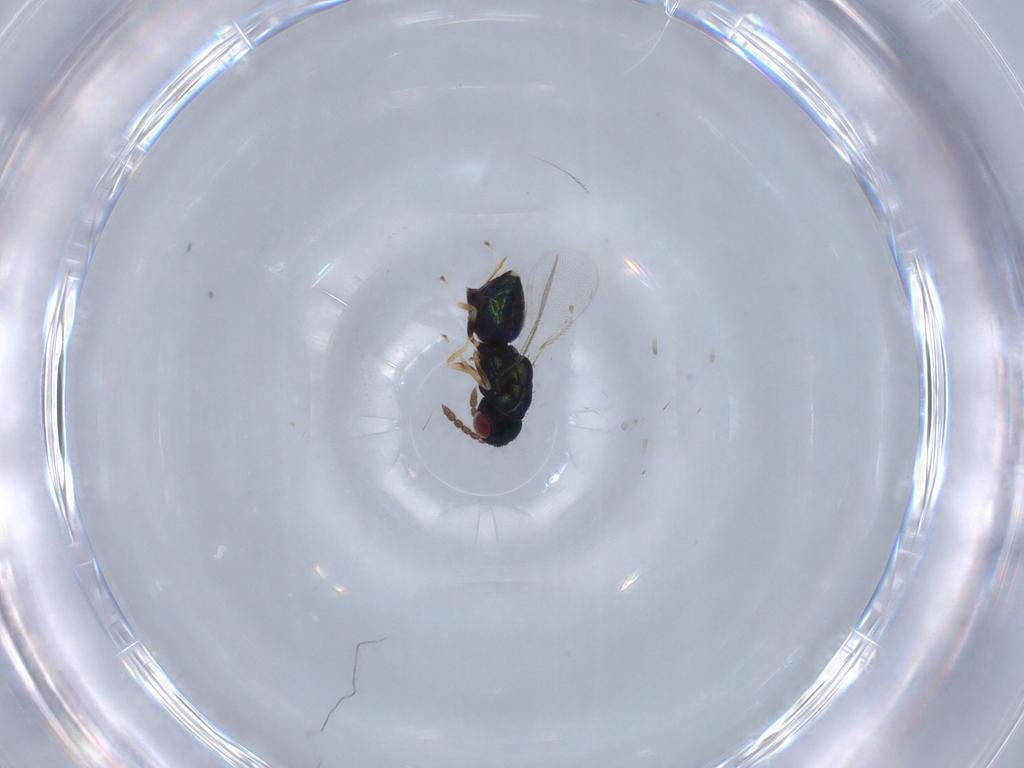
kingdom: Animalia
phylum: Arthropoda
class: Insecta
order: Hymenoptera
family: Eulophidae
